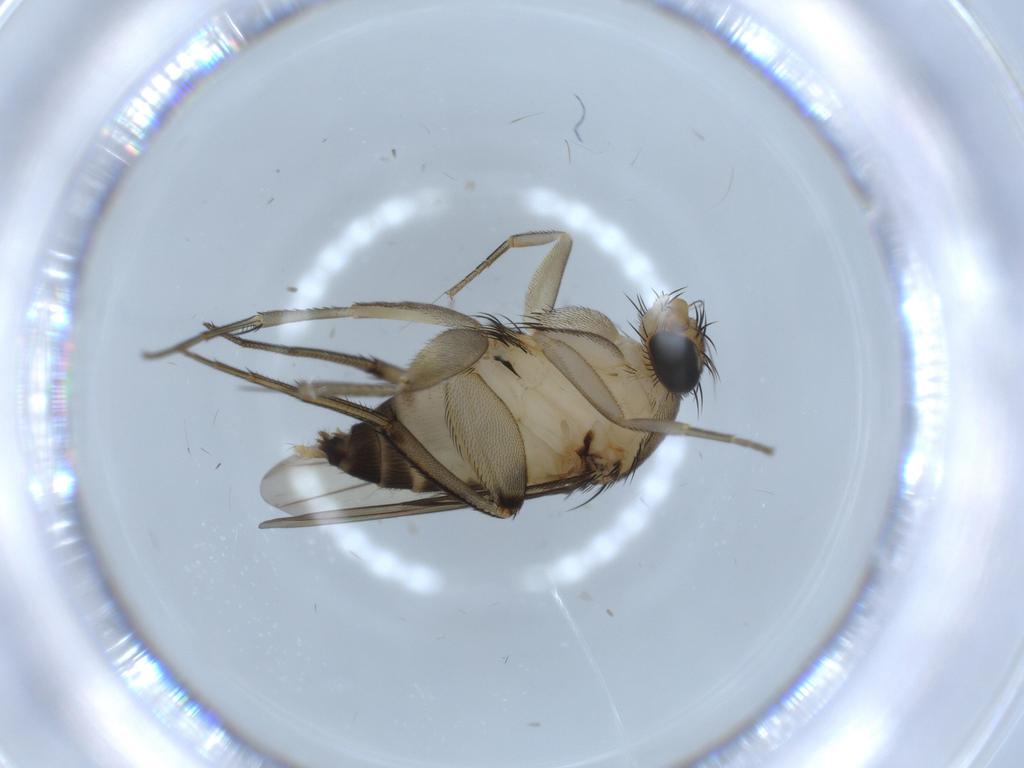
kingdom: Animalia
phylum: Arthropoda
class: Insecta
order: Diptera
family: Phoridae
